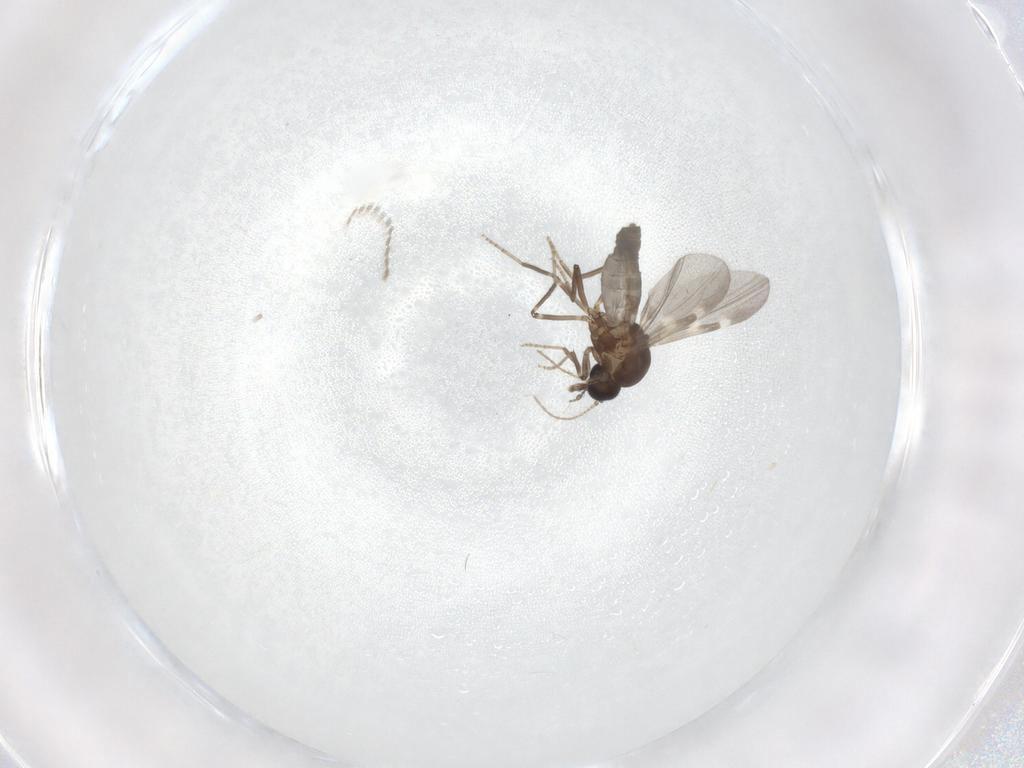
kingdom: Animalia
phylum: Arthropoda
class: Insecta
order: Diptera
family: Ceratopogonidae
